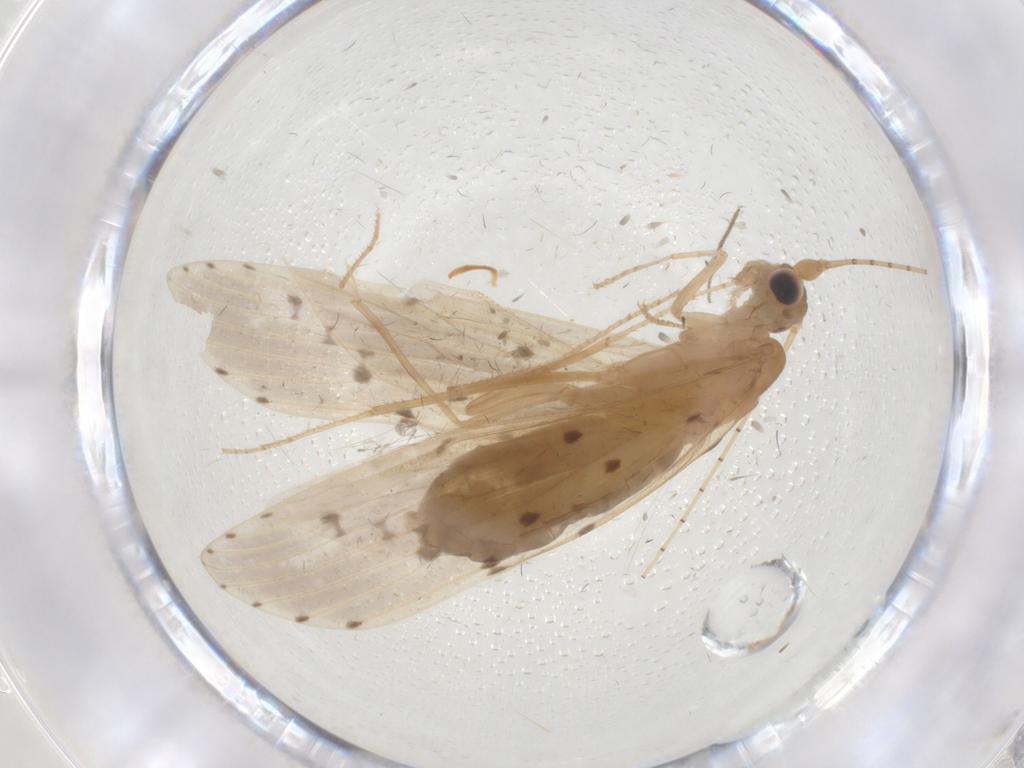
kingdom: Animalia
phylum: Arthropoda
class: Insecta
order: Trichoptera
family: Leptoceridae
